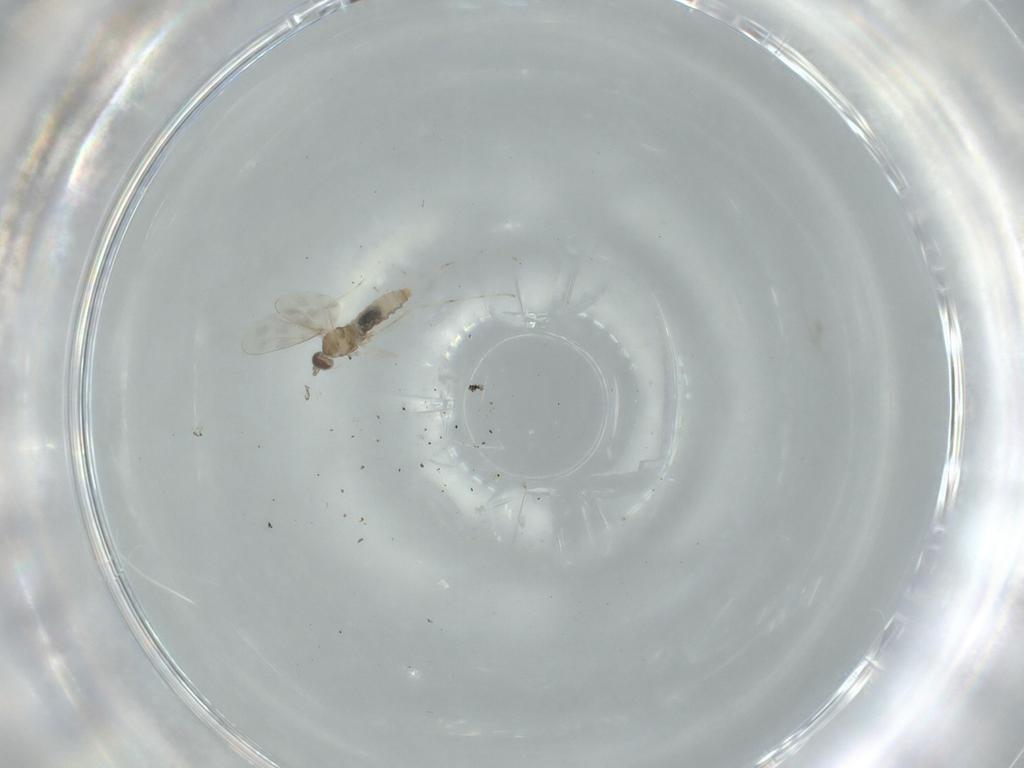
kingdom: Animalia
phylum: Arthropoda
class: Insecta
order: Diptera
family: Cecidomyiidae
